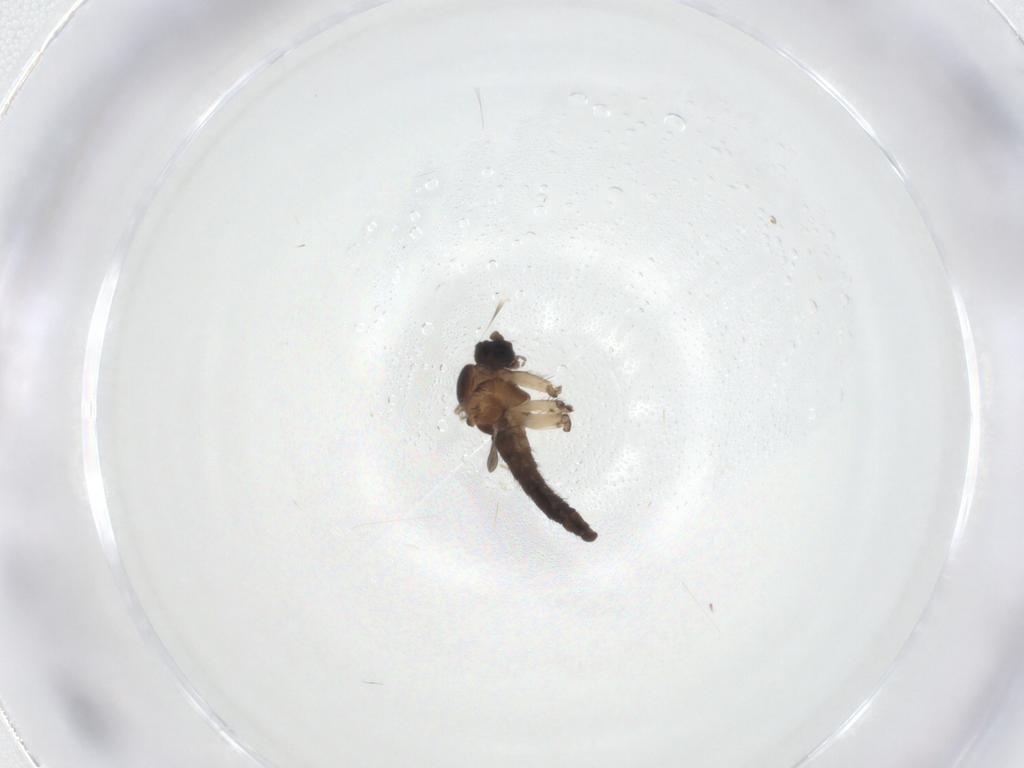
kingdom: Animalia
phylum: Arthropoda
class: Insecta
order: Diptera
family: Sciaridae
